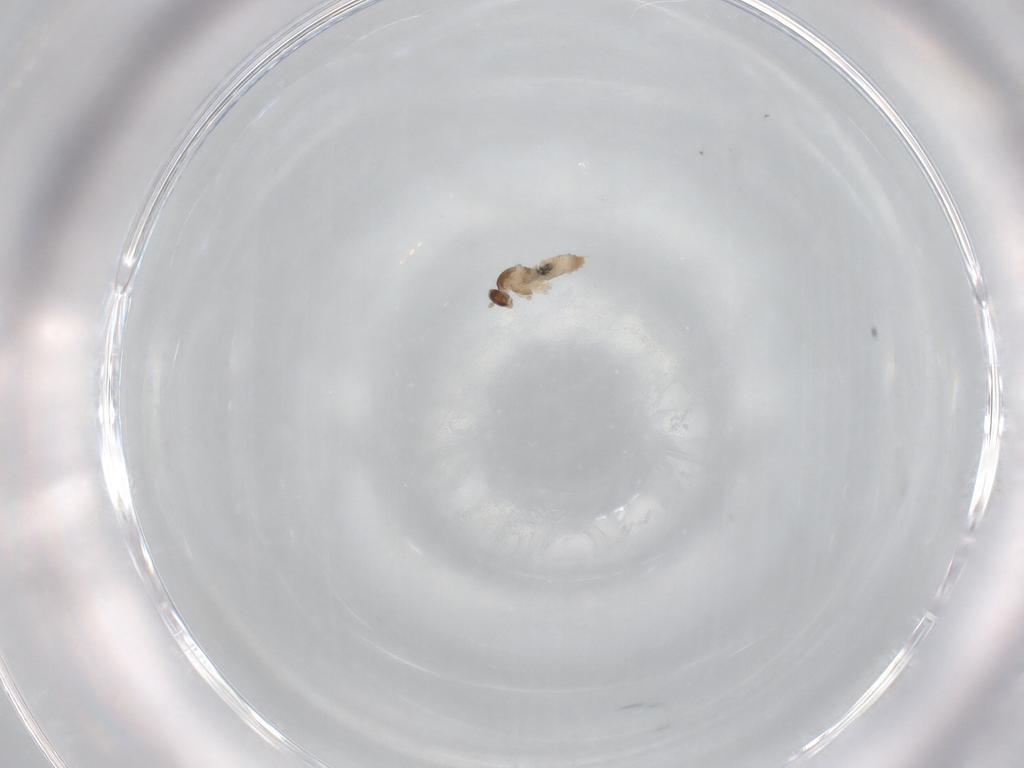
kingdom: Animalia
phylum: Arthropoda
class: Insecta
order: Diptera
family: Cecidomyiidae
